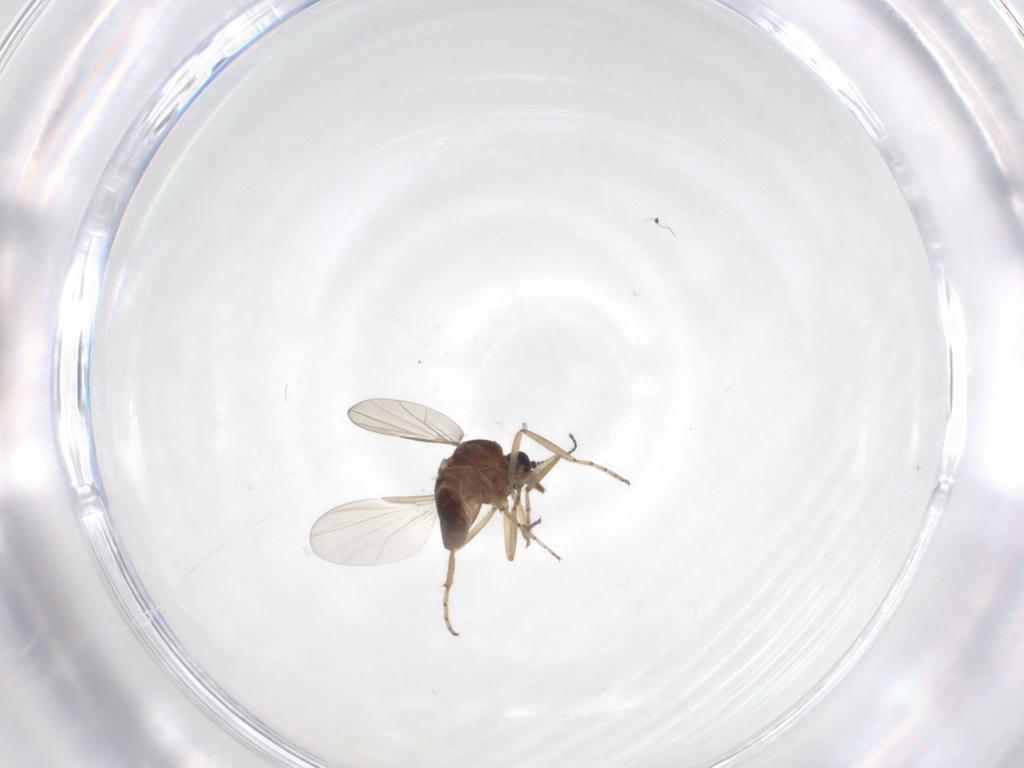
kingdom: Animalia
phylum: Arthropoda
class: Insecta
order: Diptera
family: Ceratopogonidae
